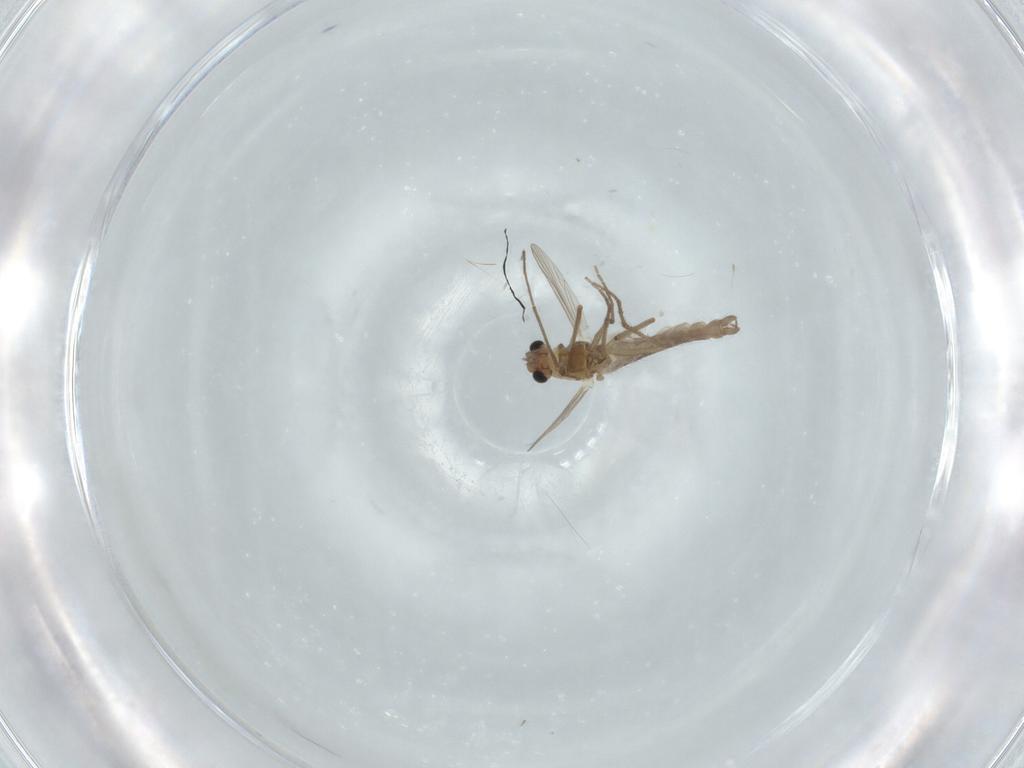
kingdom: Animalia
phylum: Arthropoda
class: Insecta
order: Diptera
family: Chironomidae
